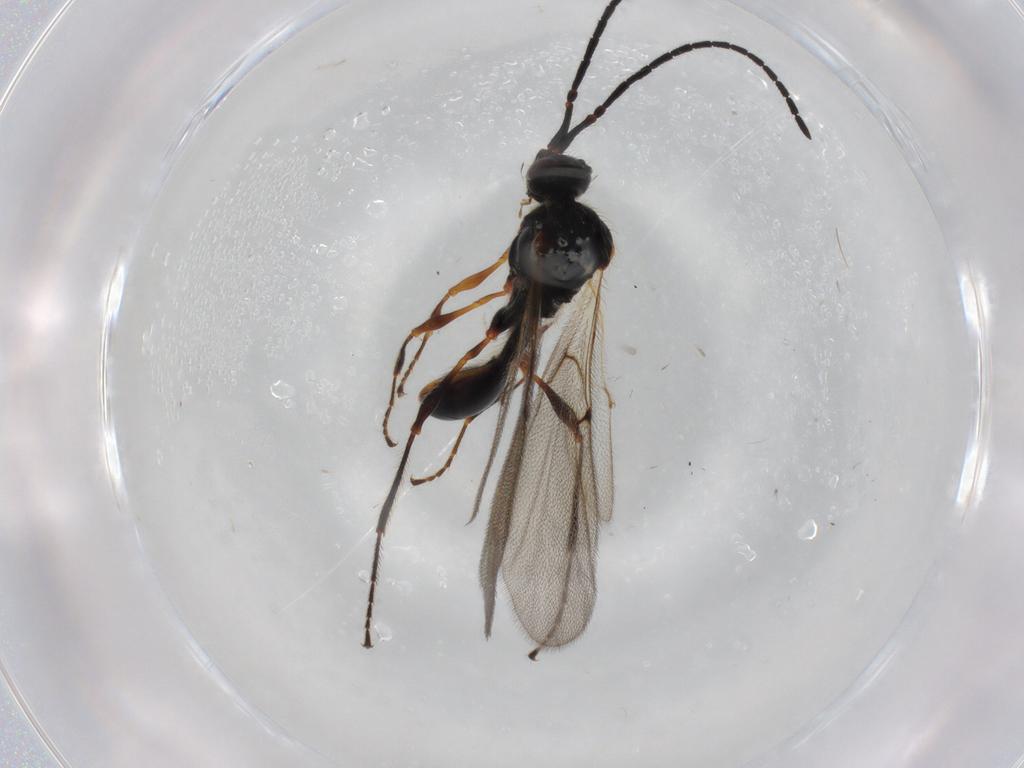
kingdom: Animalia
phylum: Arthropoda
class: Insecta
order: Hymenoptera
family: Diapriidae
